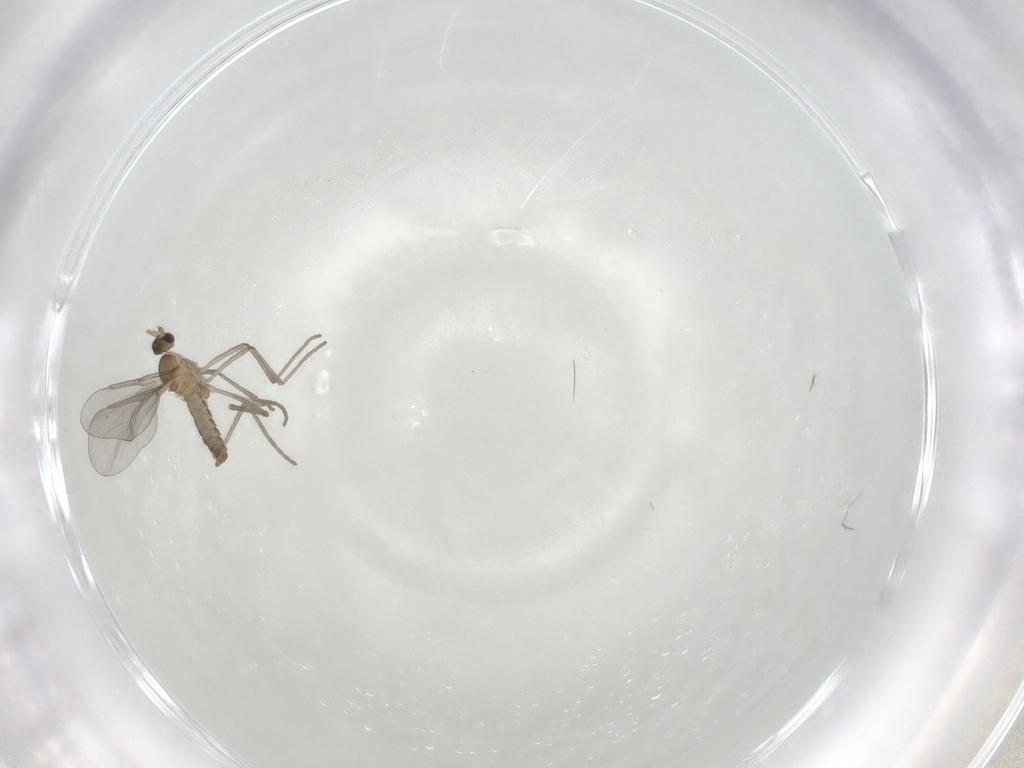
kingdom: Animalia
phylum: Arthropoda
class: Insecta
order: Diptera
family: Cecidomyiidae
